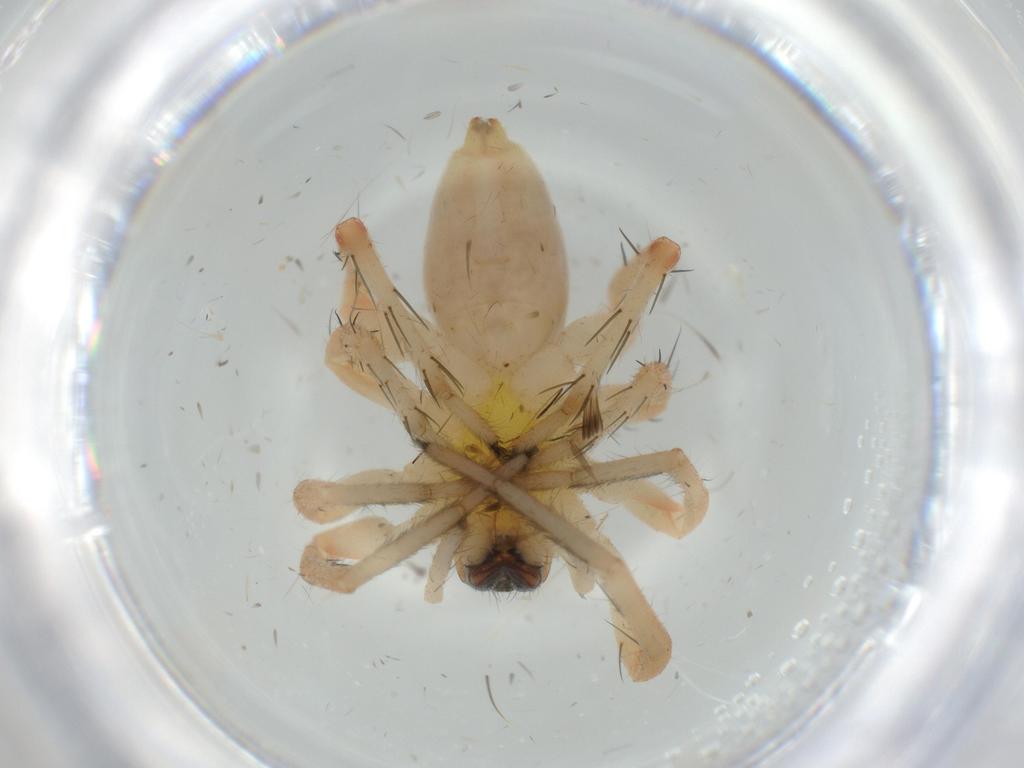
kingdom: Animalia
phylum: Arthropoda
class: Arachnida
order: Araneae
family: Anyphaenidae
